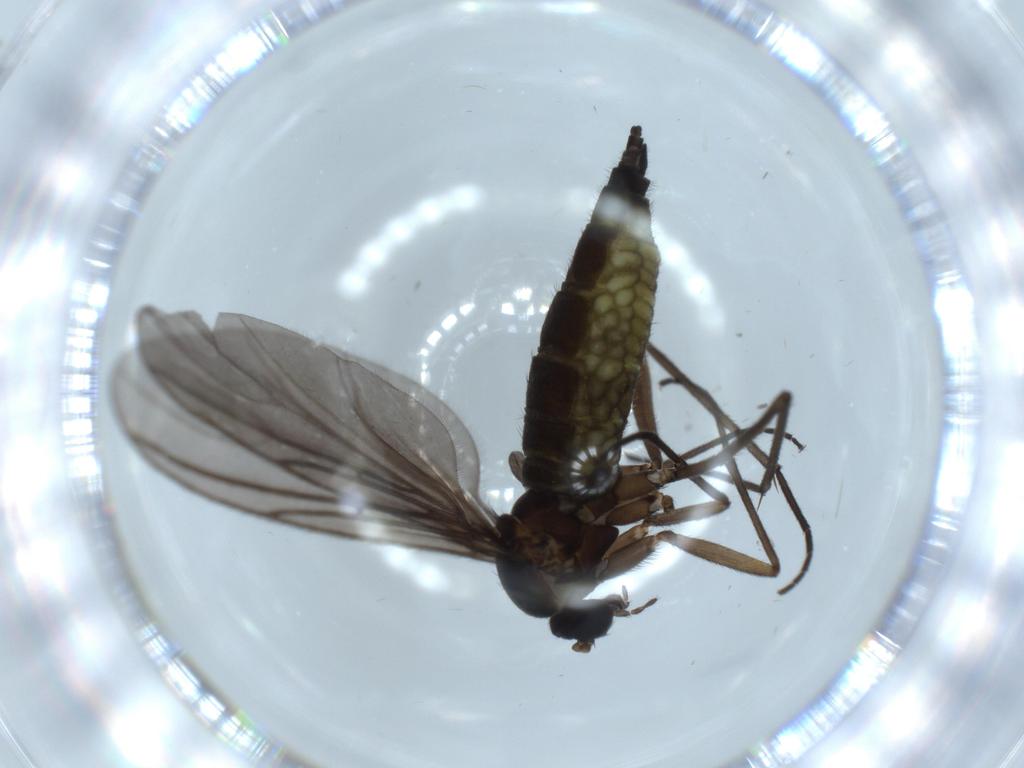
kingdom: Animalia
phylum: Arthropoda
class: Insecta
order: Diptera
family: Sciaridae
